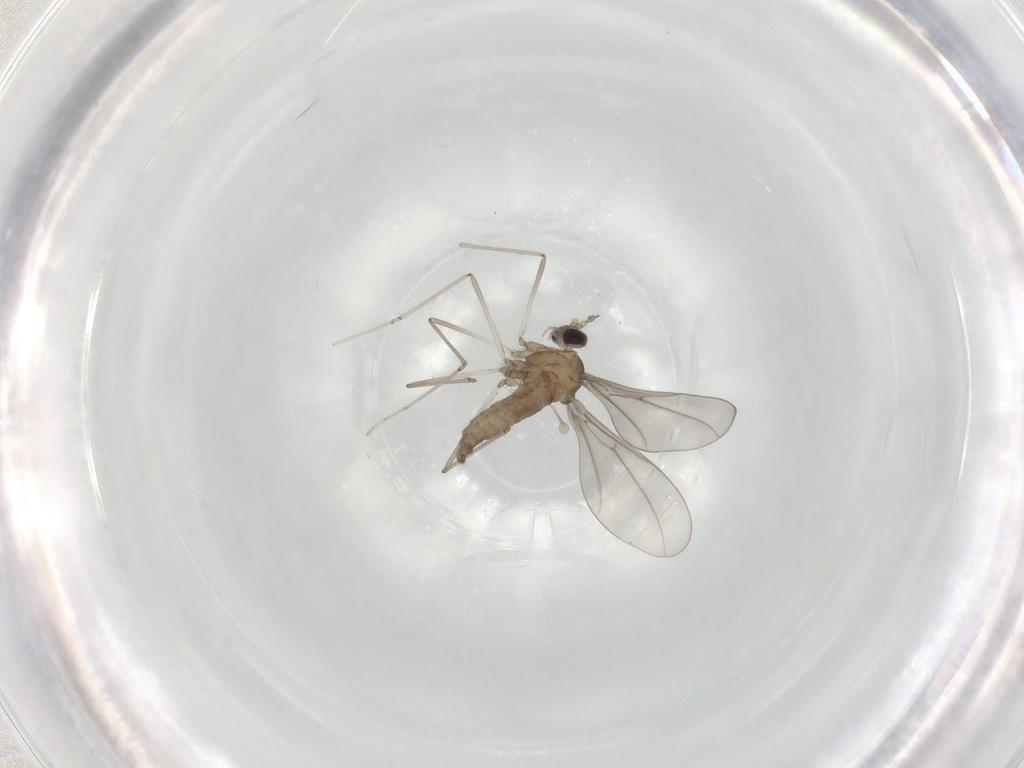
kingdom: Animalia
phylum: Arthropoda
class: Insecta
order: Diptera
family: Cecidomyiidae
